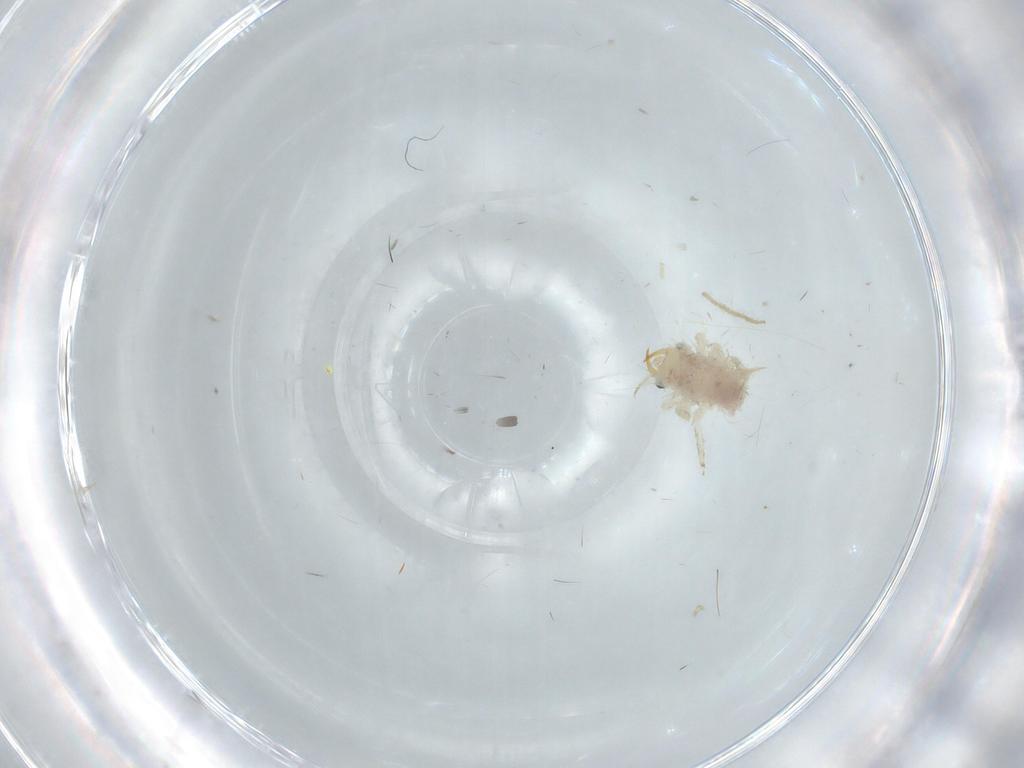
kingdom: Animalia
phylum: Arthropoda
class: Insecta
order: Neuroptera
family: Chrysopidae
